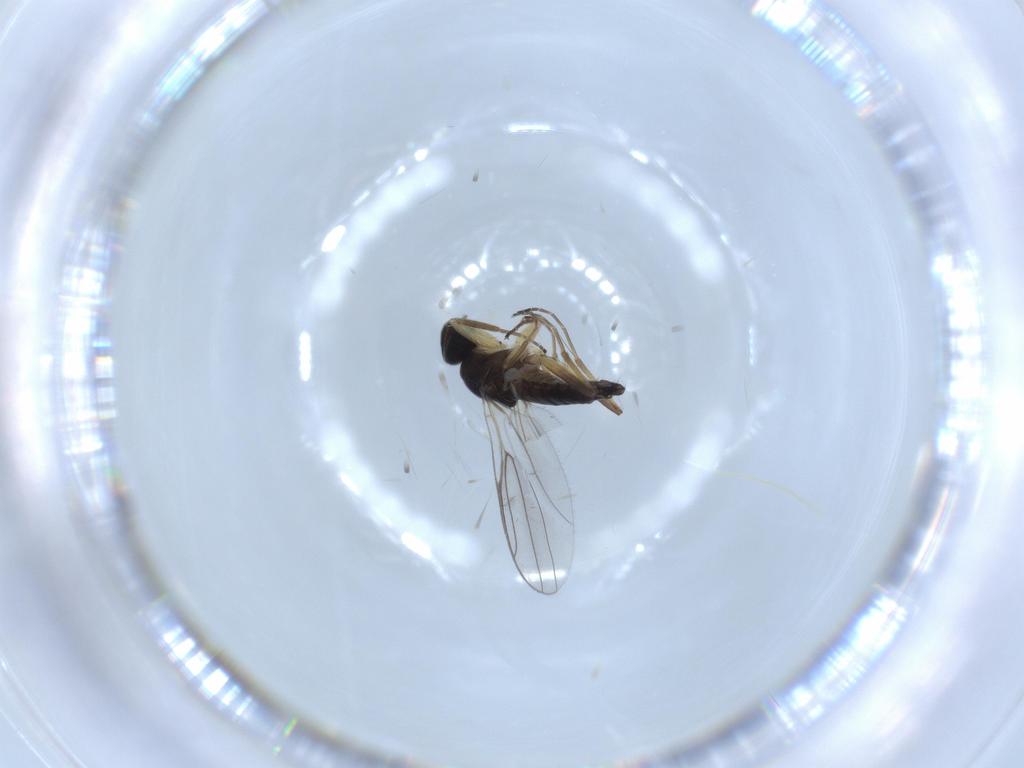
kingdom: Animalia
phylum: Arthropoda
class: Insecta
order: Diptera
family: Hybotidae
